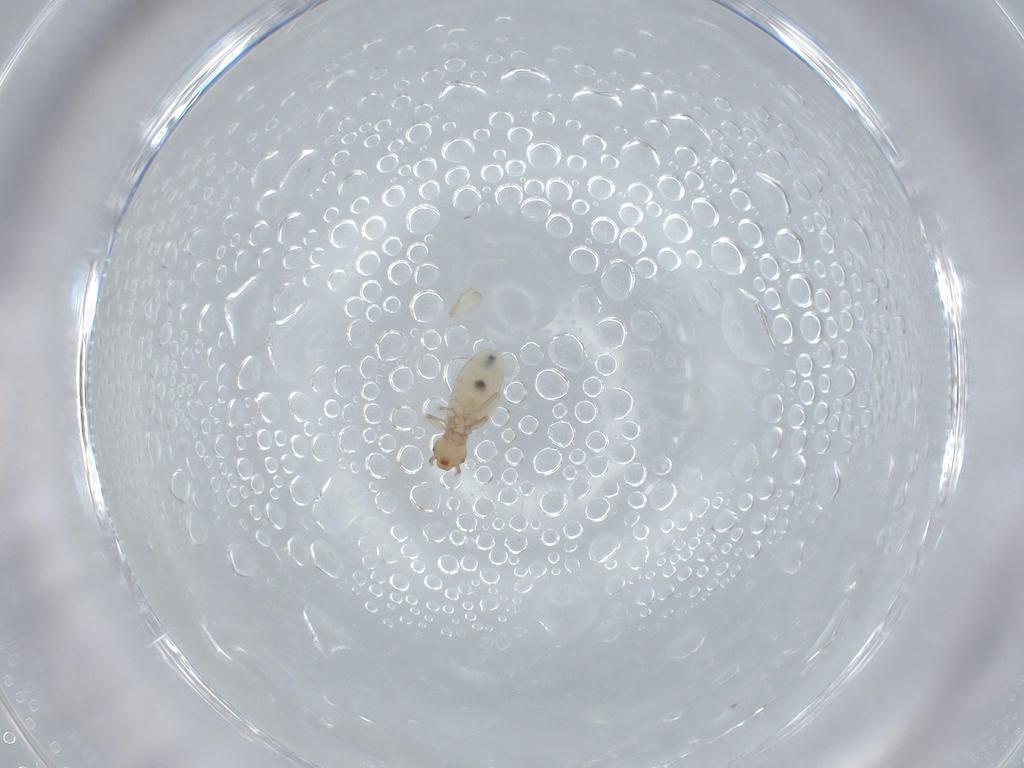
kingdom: Animalia
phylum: Arthropoda
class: Insecta
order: Psocodea
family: Liposcelididae
